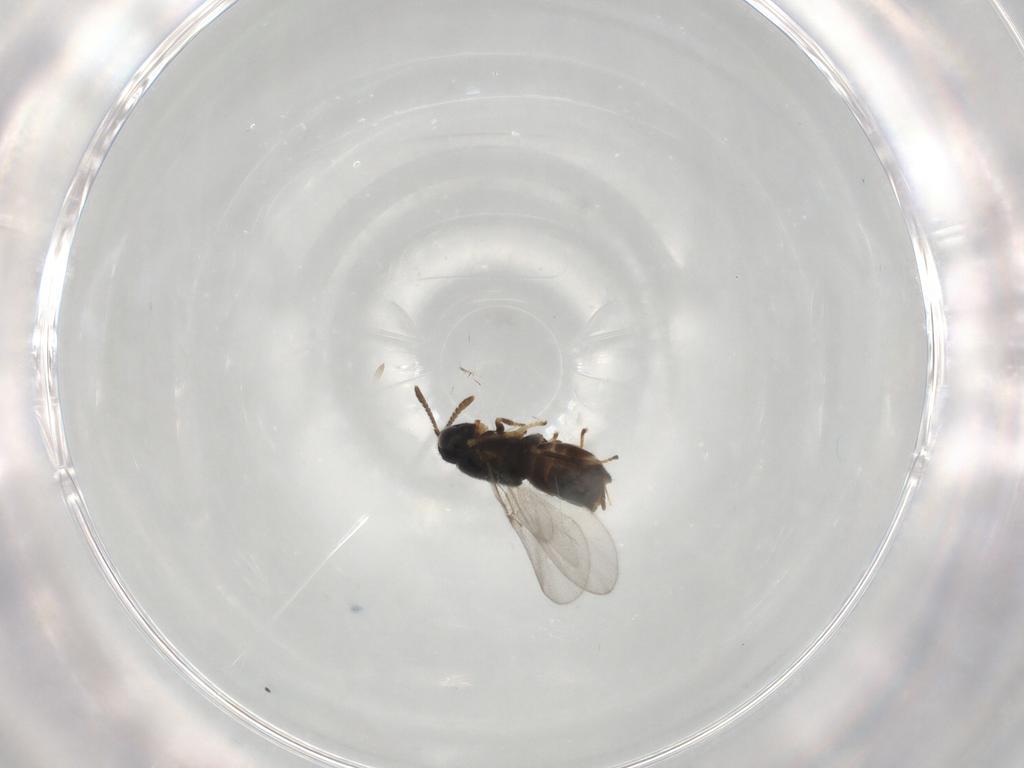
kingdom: Animalia
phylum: Arthropoda
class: Insecta
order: Hymenoptera
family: Encyrtidae
